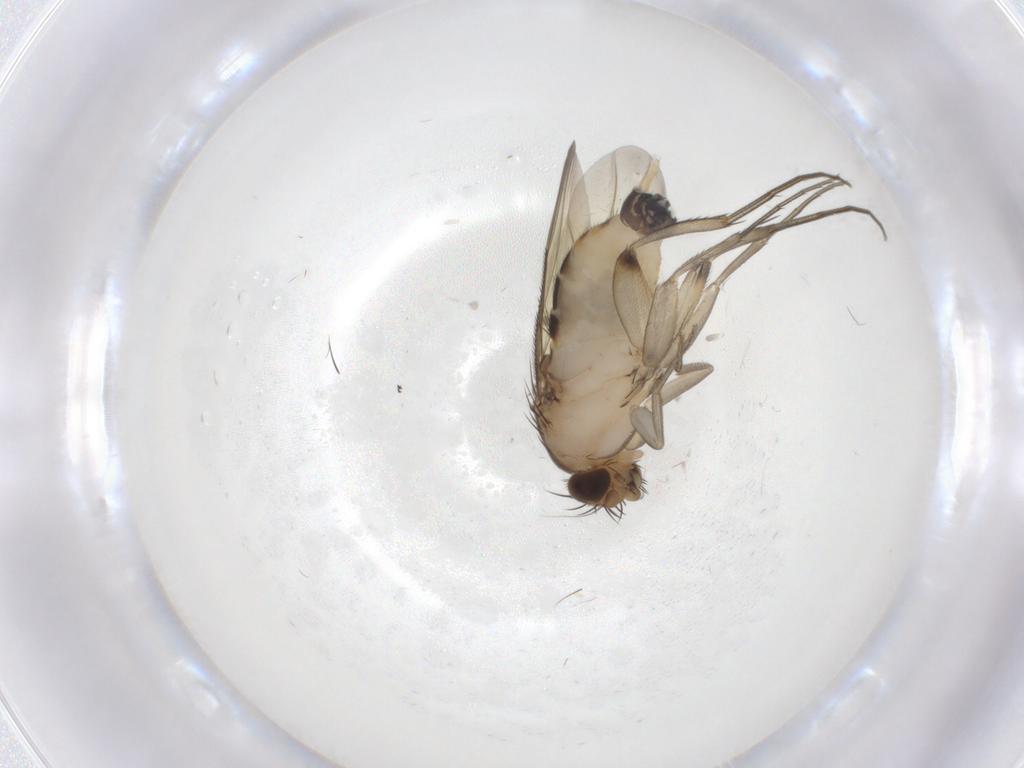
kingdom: Animalia
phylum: Arthropoda
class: Insecta
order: Diptera
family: Phoridae
